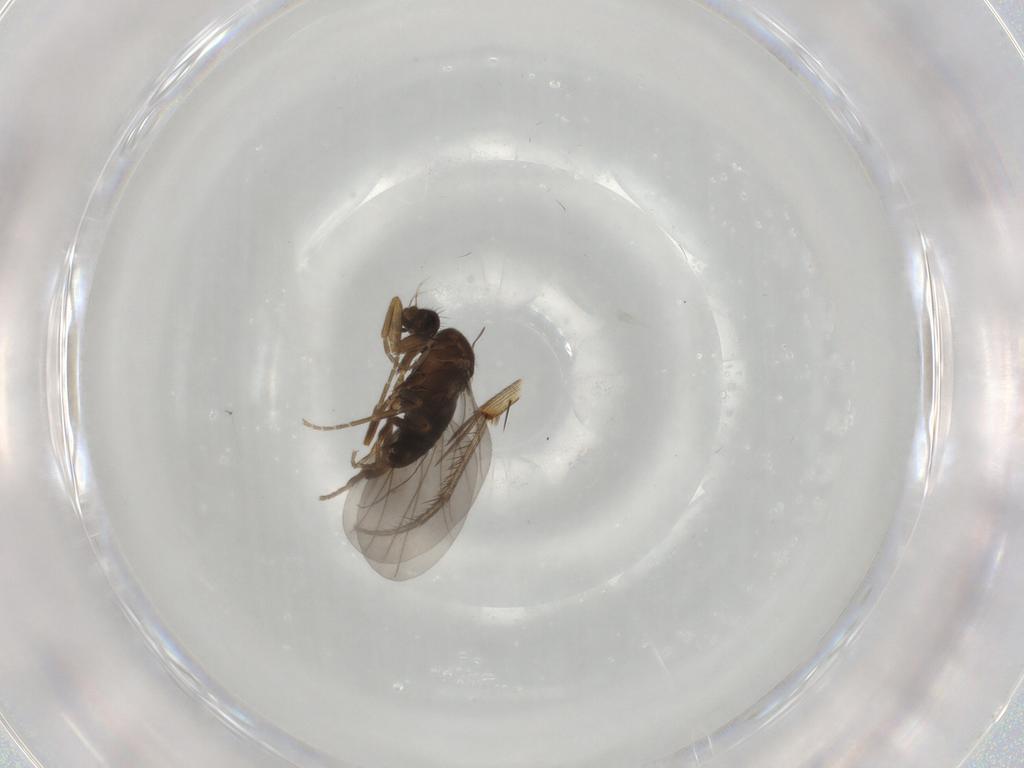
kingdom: Animalia
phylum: Arthropoda
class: Insecta
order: Diptera
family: Mycetophilidae
